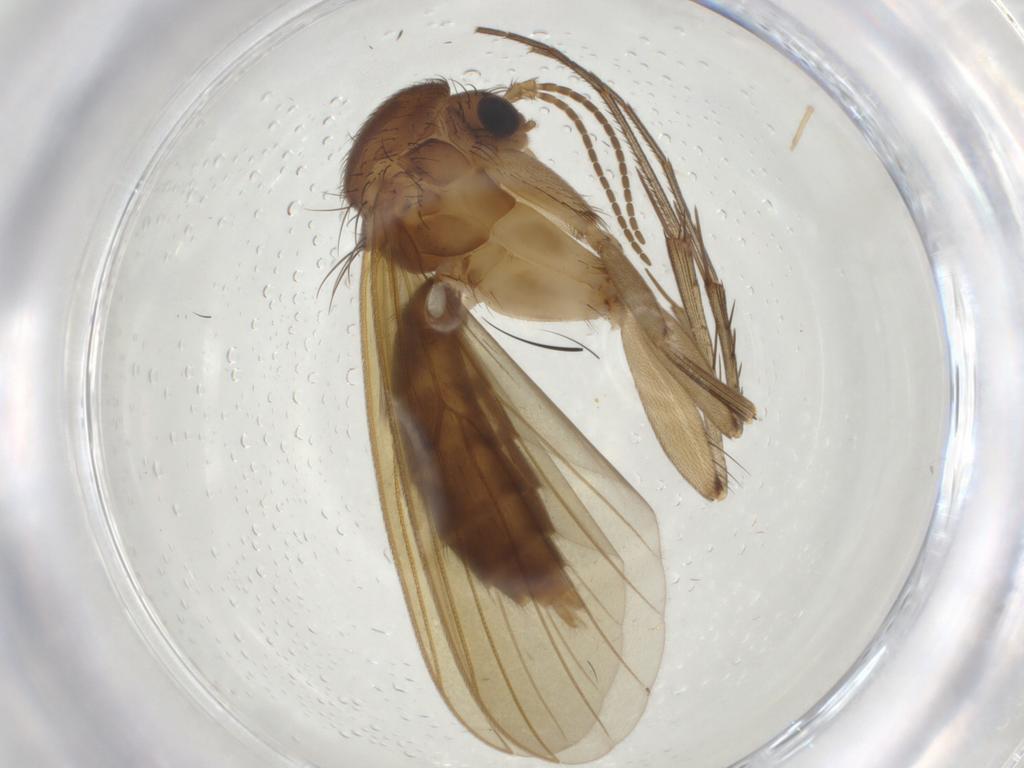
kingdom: Animalia
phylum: Arthropoda
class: Insecta
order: Diptera
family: Cecidomyiidae
